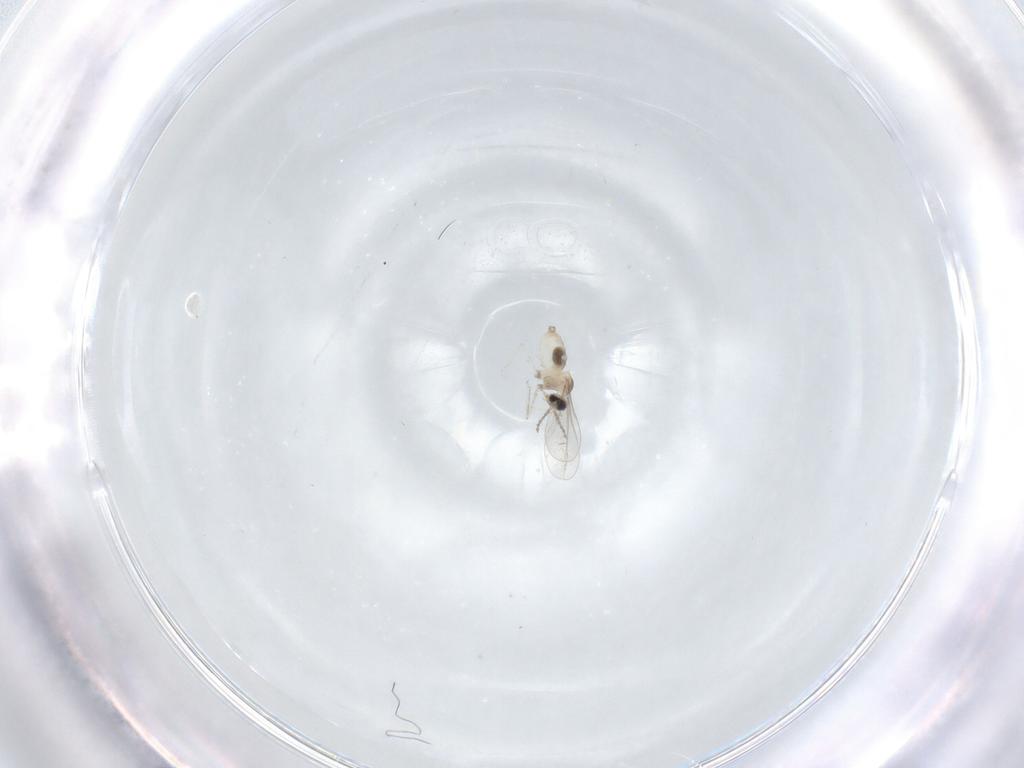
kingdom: Animalia
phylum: Arthropoda
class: Insecta
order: Diptera
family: Cecidomyiidae
